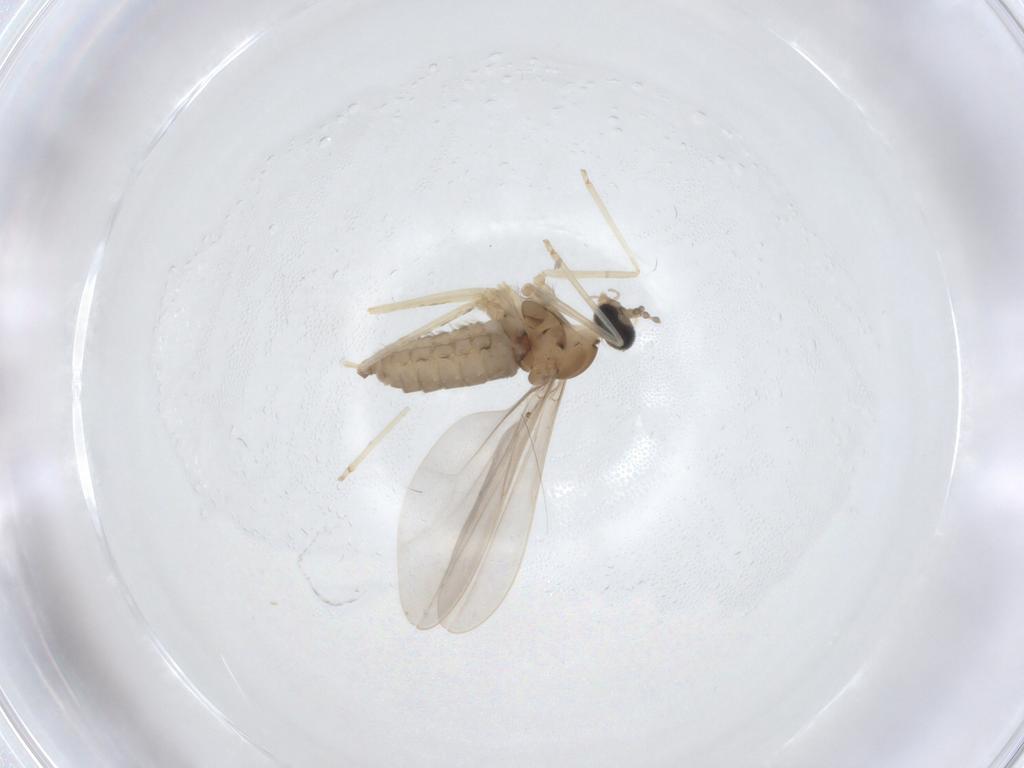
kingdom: Animalia
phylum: Arthropoda
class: Insecta
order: Diptera
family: Cecidomyiidae
